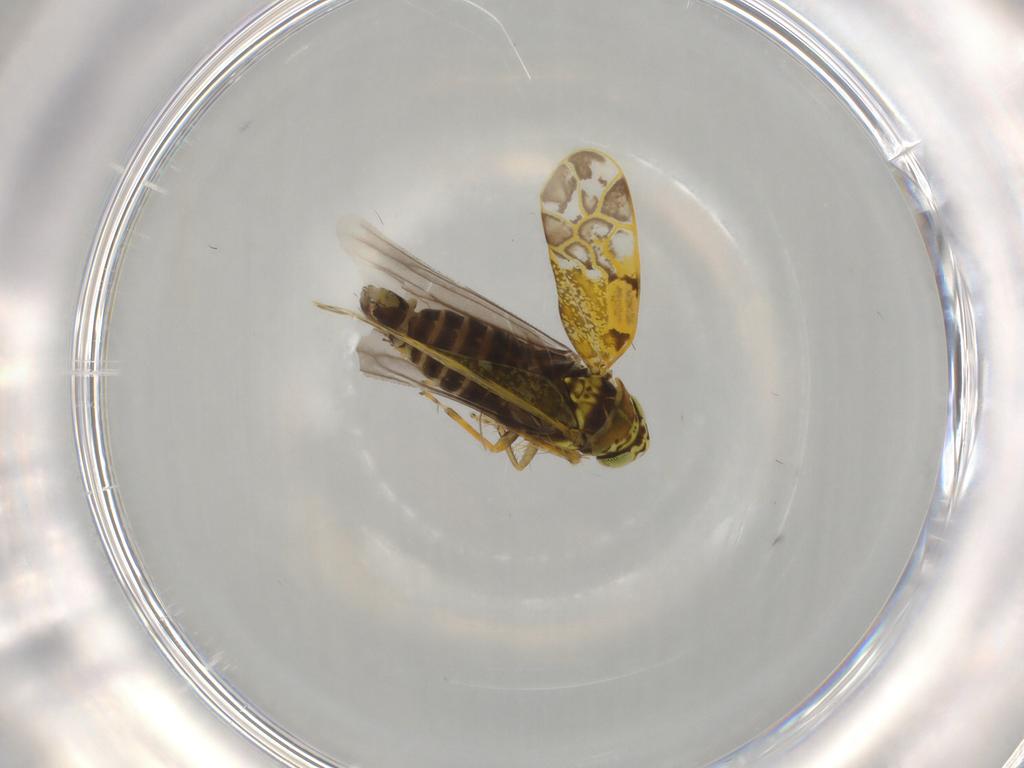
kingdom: Animalia
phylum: Arthropoda
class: Insecta
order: Hemiptera
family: Cicadellidae
